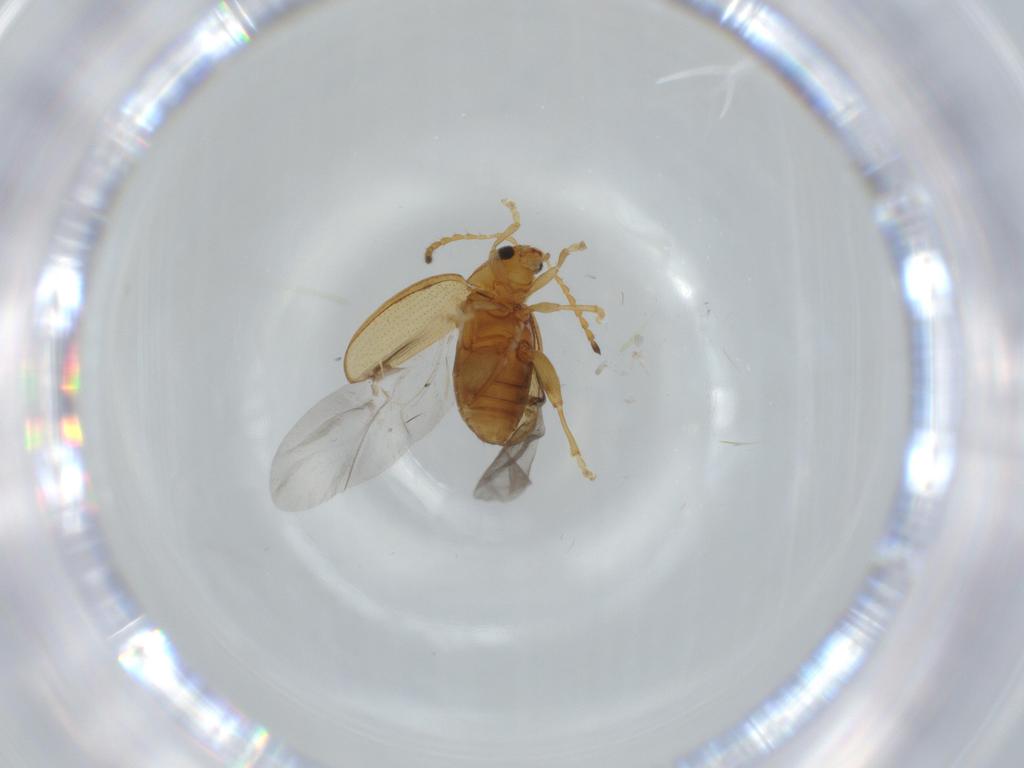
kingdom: Animalia
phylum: Arthropoda
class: Insecta
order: Coleoptera
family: Chrysomelidae
